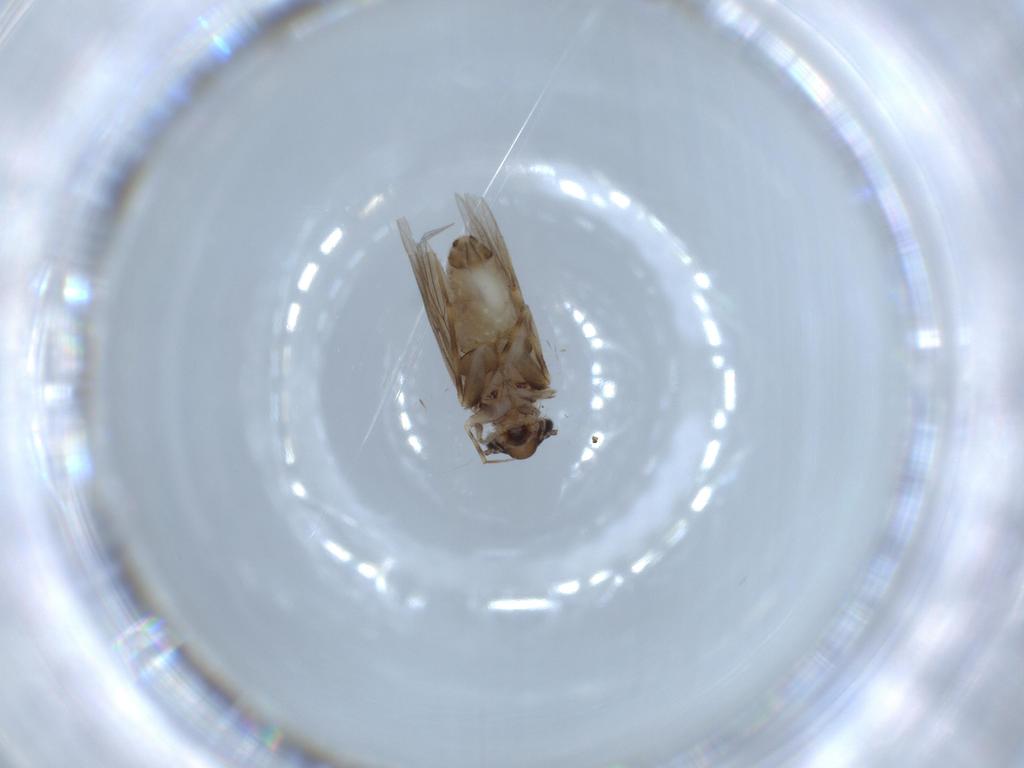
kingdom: Animalia
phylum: Arthropoda
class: Insecta
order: Psocodea
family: Lepidopsocidae
